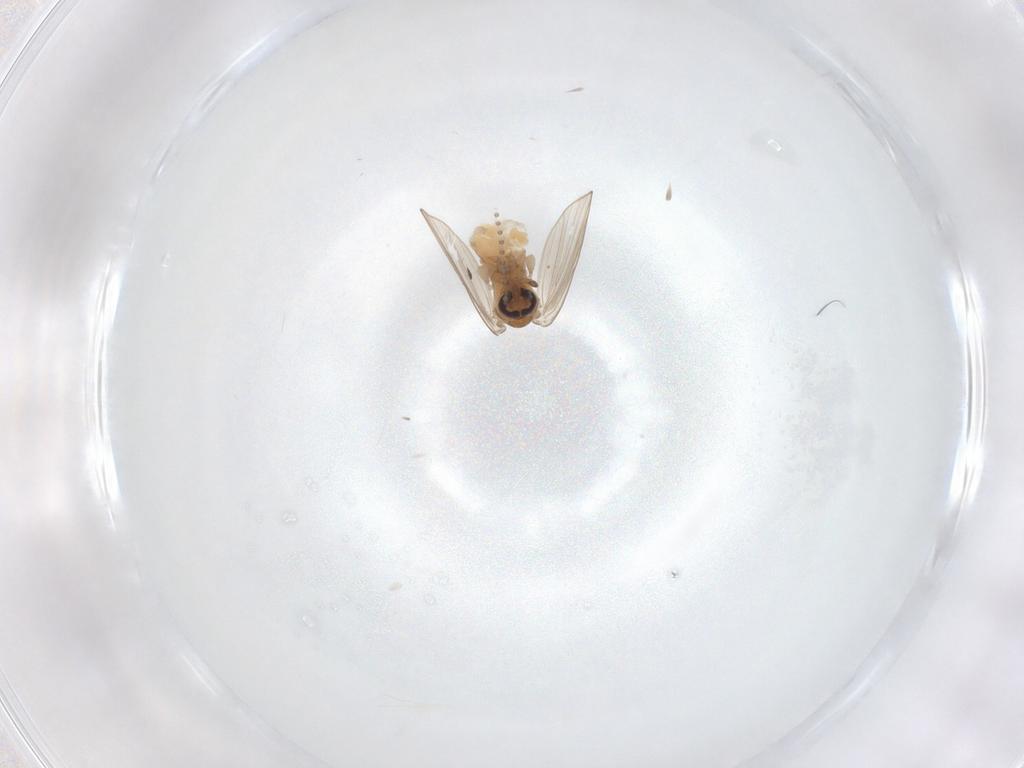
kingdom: Animalia
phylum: Arthropoda
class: Insecta
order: Diptera
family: Psychodidae
